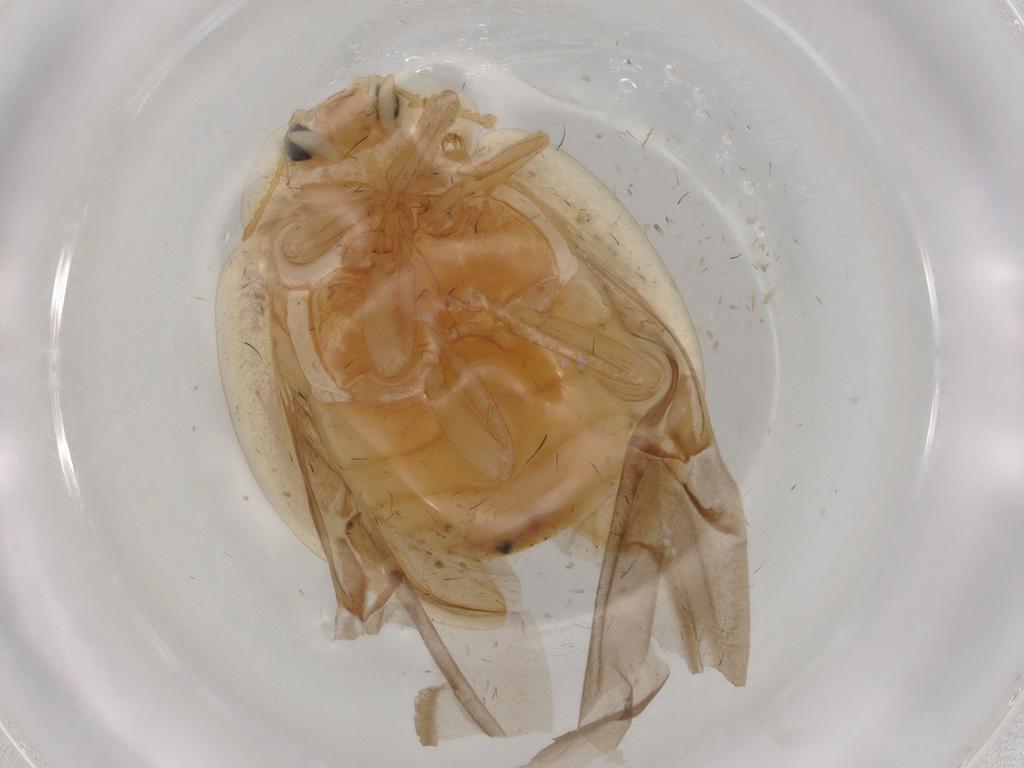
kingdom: Animalia
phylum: Arthropoda
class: Insecta
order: Coleoptera
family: Coccinellidae
